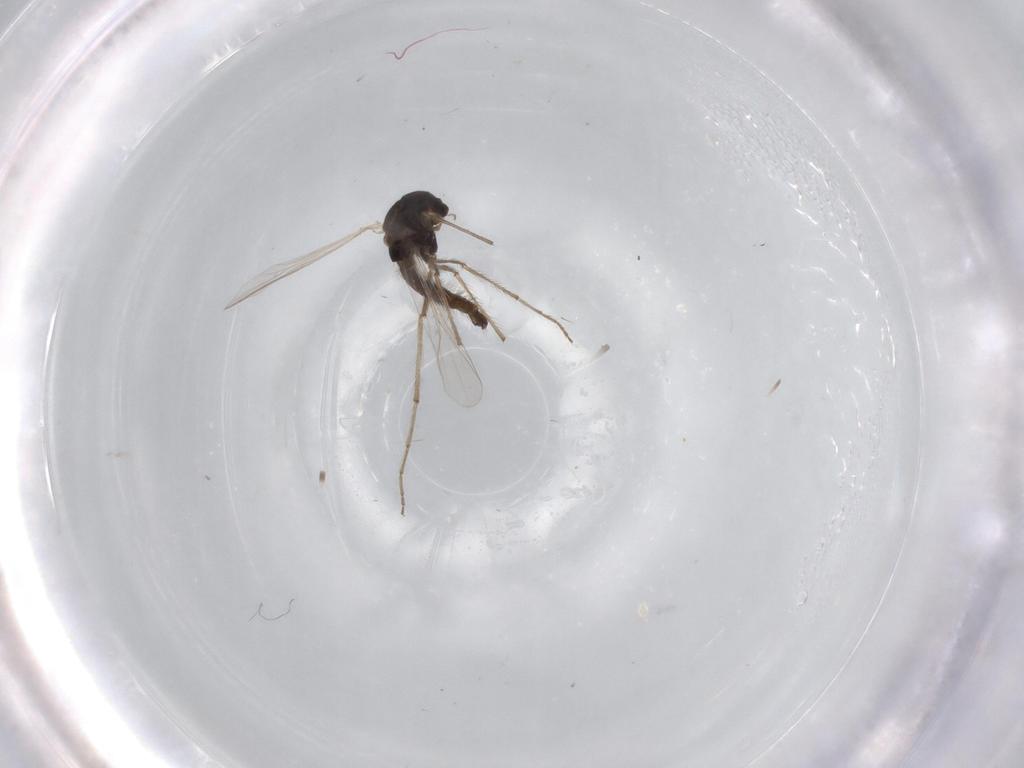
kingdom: Animalia
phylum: Arthropoda
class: Insecta
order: Diptera
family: Chironomidae
